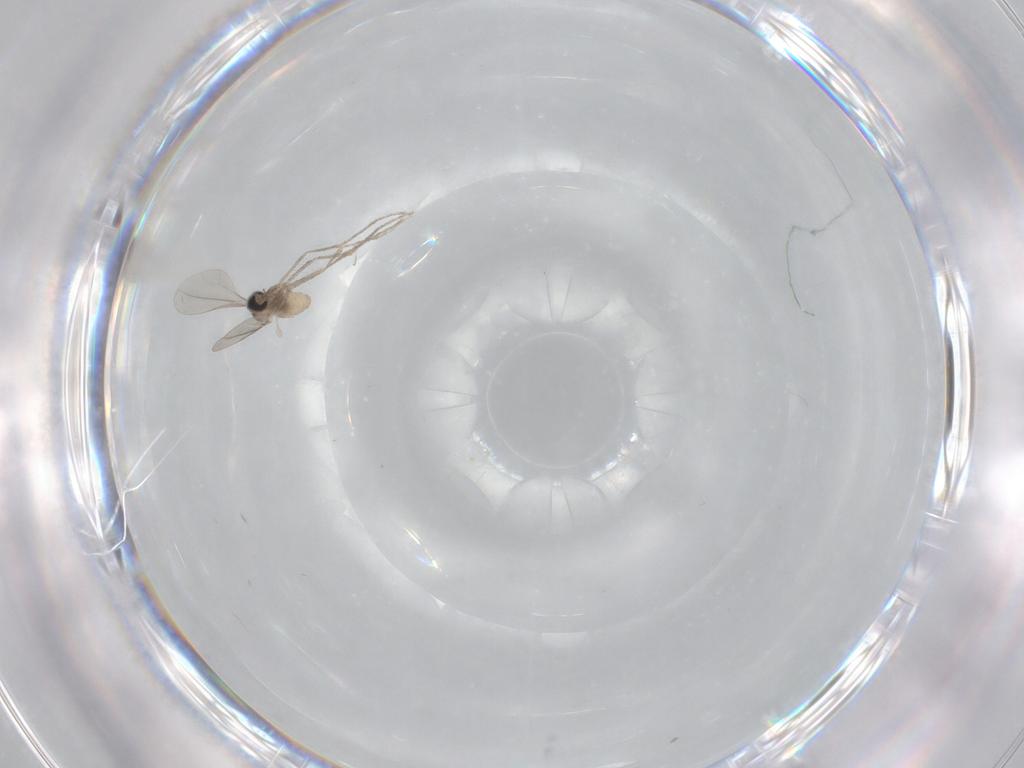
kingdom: Animalia
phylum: Arthropoda
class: Insecta
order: Diptera
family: Cecidomyiidae
